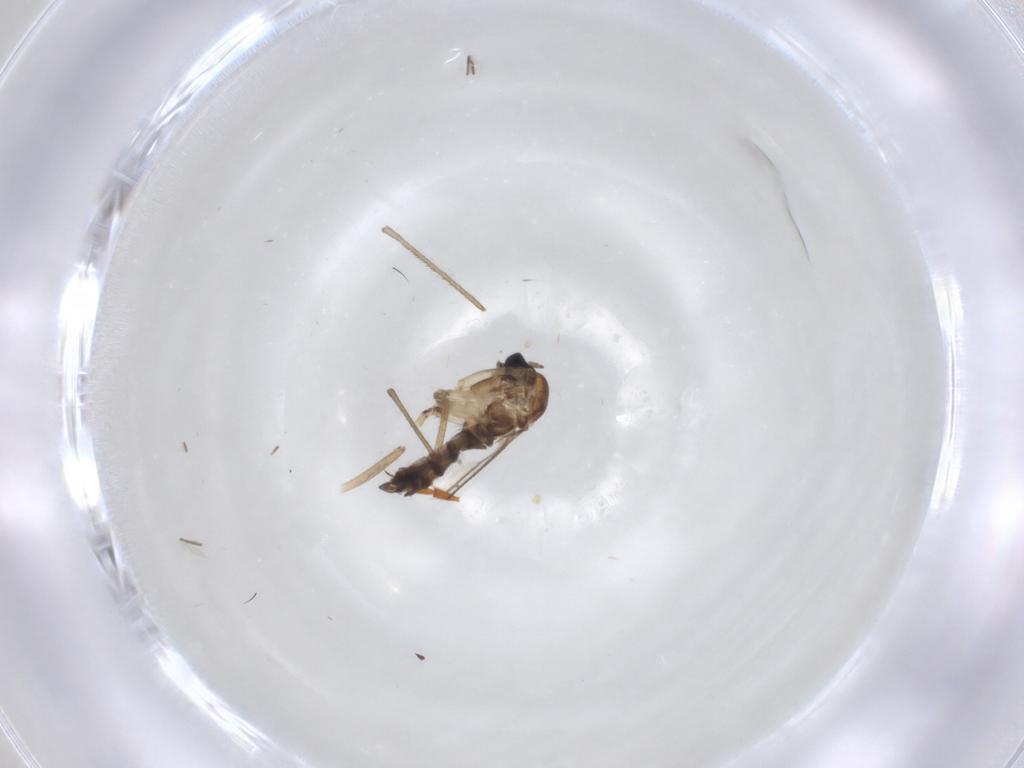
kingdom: Animalia
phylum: Arthropoda
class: Insecta
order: Diptera
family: Sciaridae
